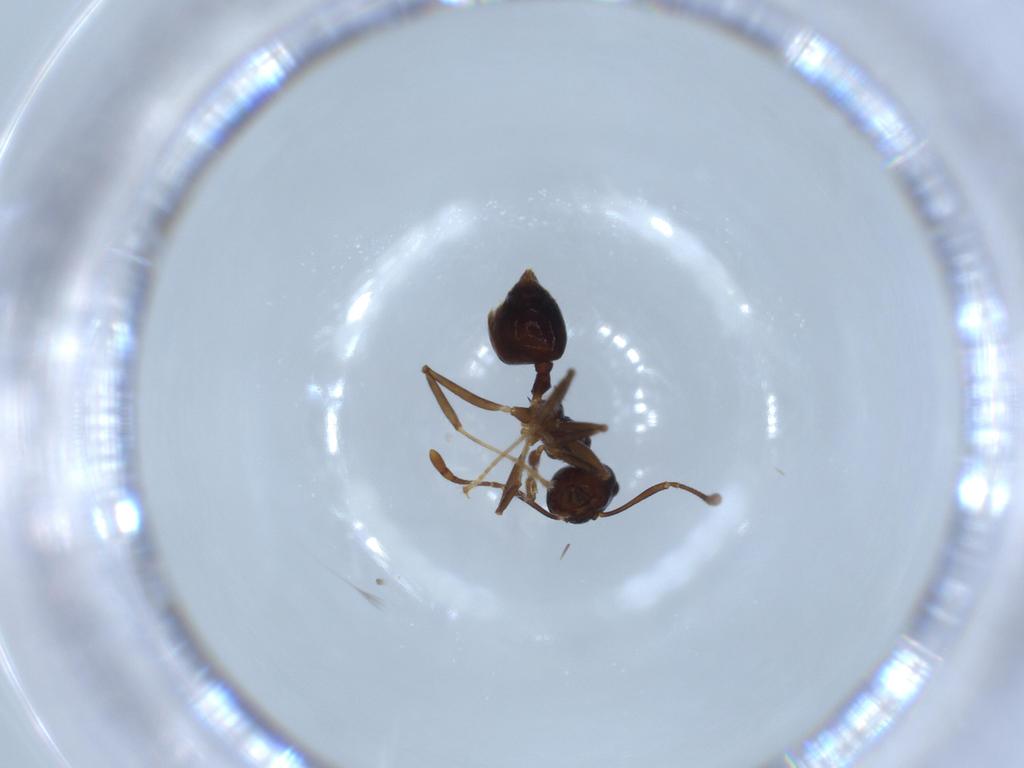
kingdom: Animalia
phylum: Arthropoda
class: Insecta
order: Hymenoptera
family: Formicidae
